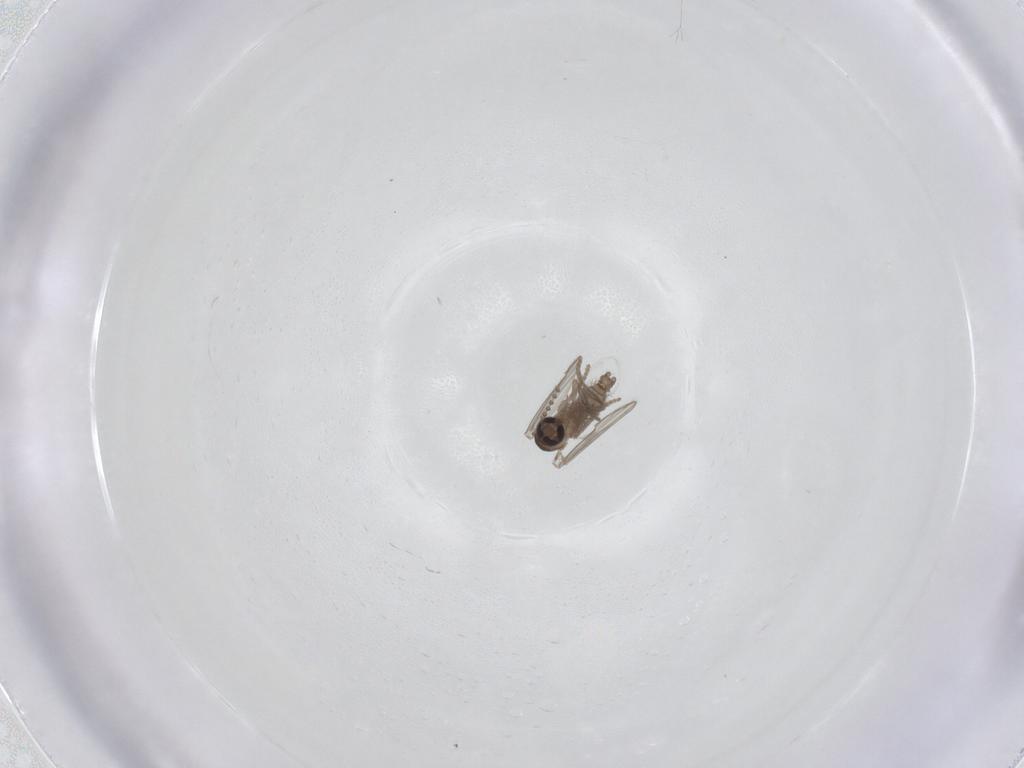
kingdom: Animalia
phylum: Arthropoda
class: Insecta
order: Diptera
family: Psychodidae
